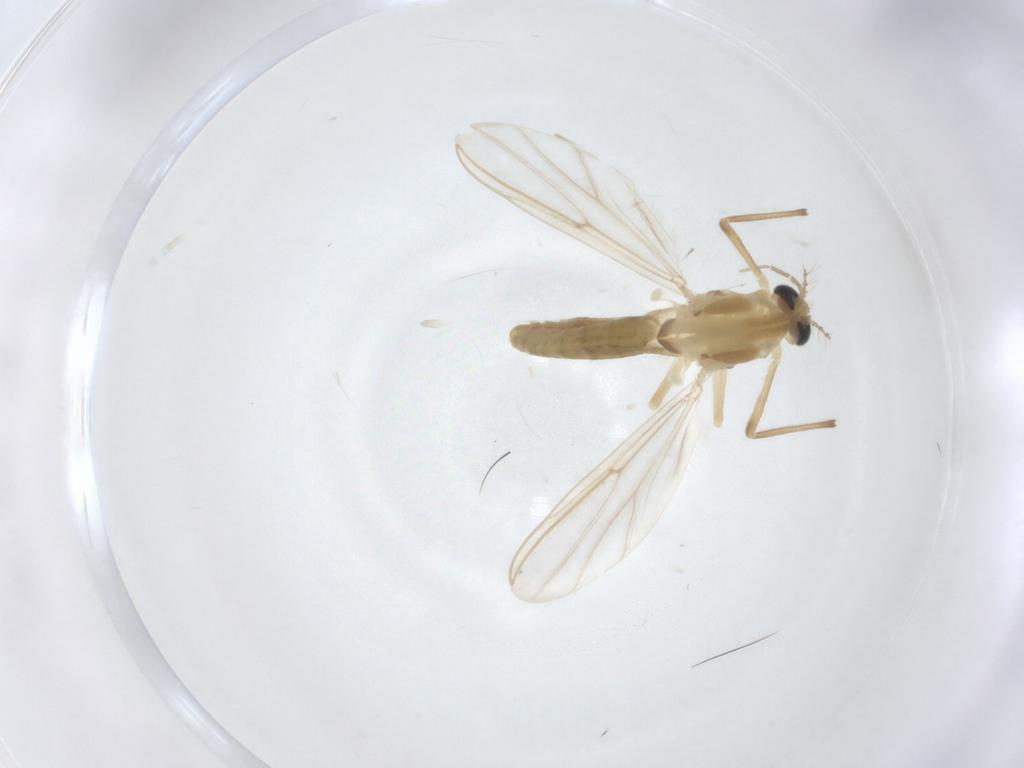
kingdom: Animalia
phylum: Arthropoda
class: Insecta
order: Diptera
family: Chironomidae
